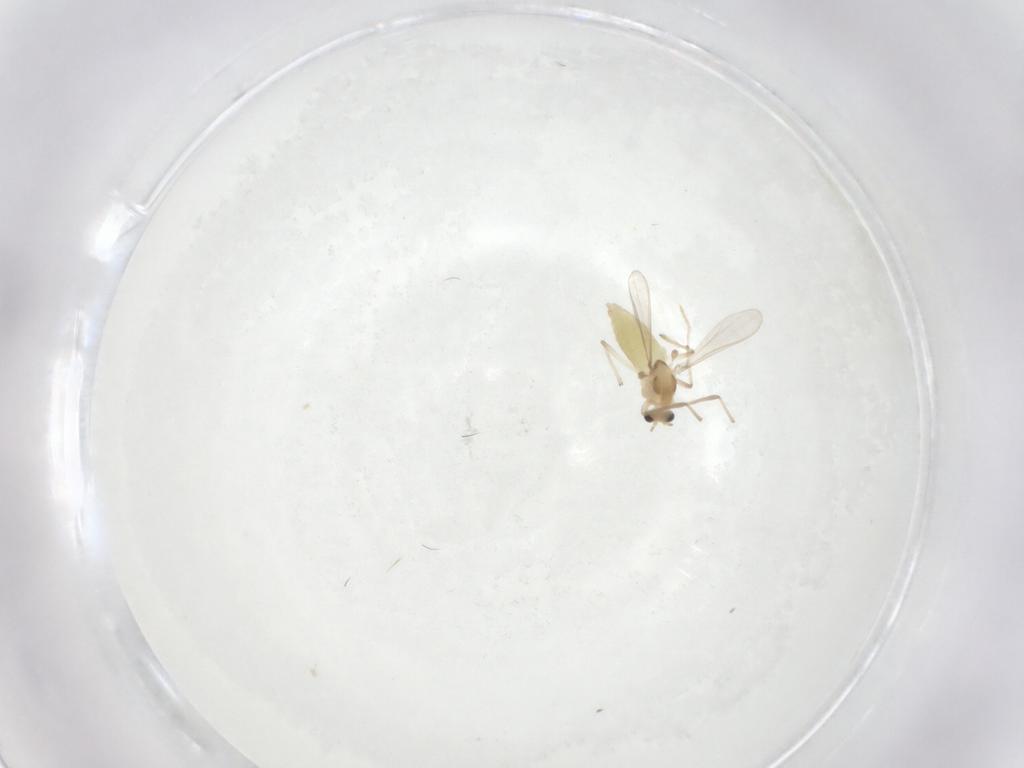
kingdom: Animalia
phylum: Arthropoda
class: Insecta
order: Diptera
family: Chironomidae
